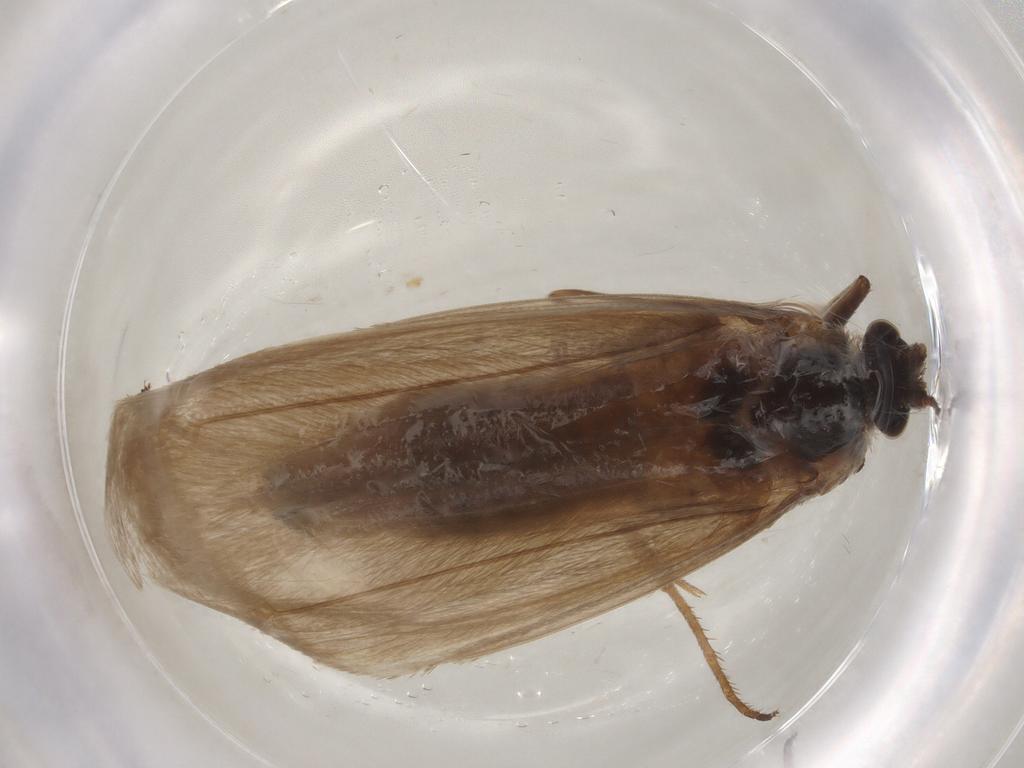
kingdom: Animalia
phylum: Arthropoda
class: Insecta
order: Lepidoptera
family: Adelidae
